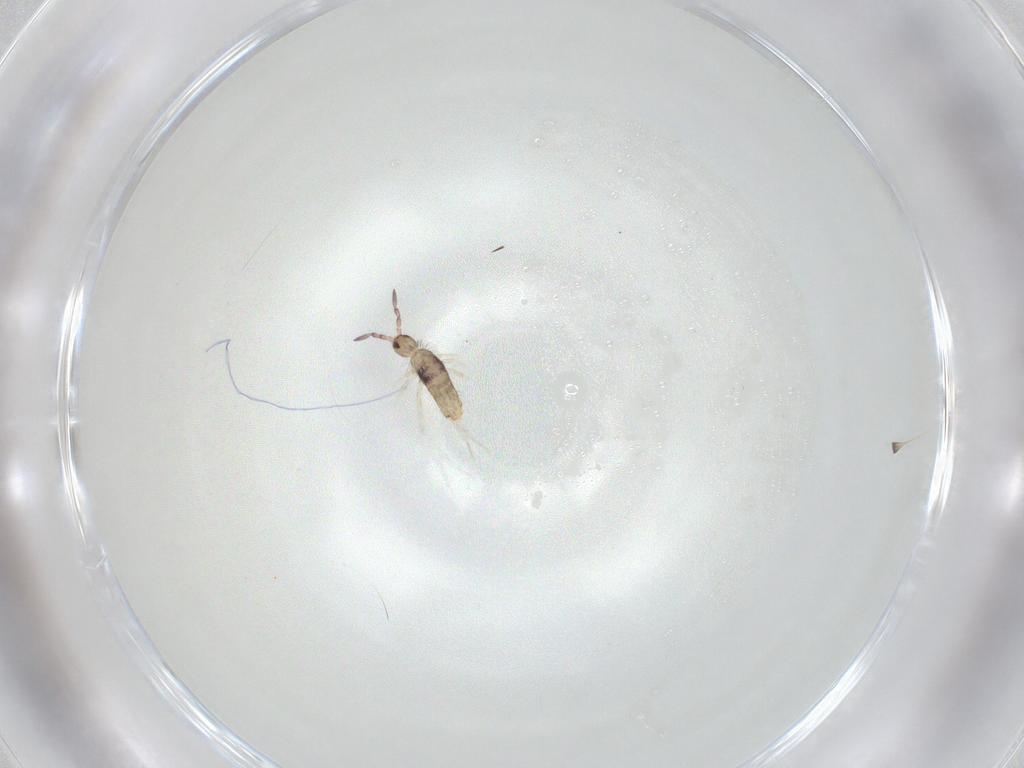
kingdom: Animalia
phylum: Arthropoda
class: Collembola
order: Entomobryomorpha
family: Entomobryidae
